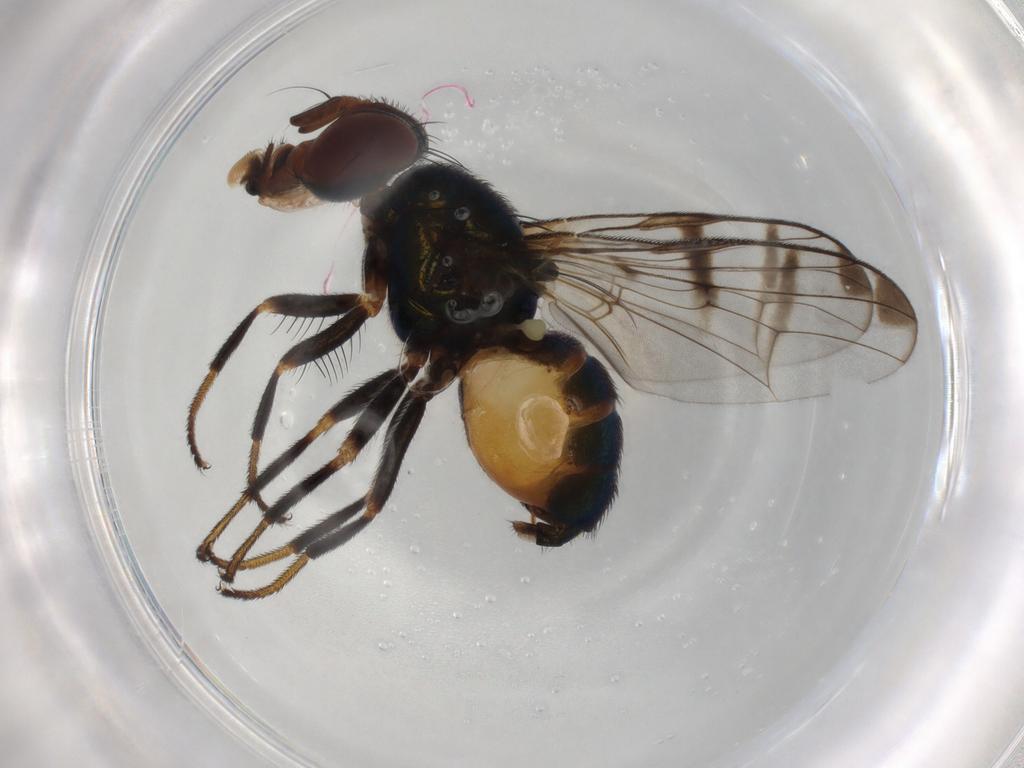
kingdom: Animalia
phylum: Arthropoda
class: Insecta
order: Diptera
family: Platystomatidae
